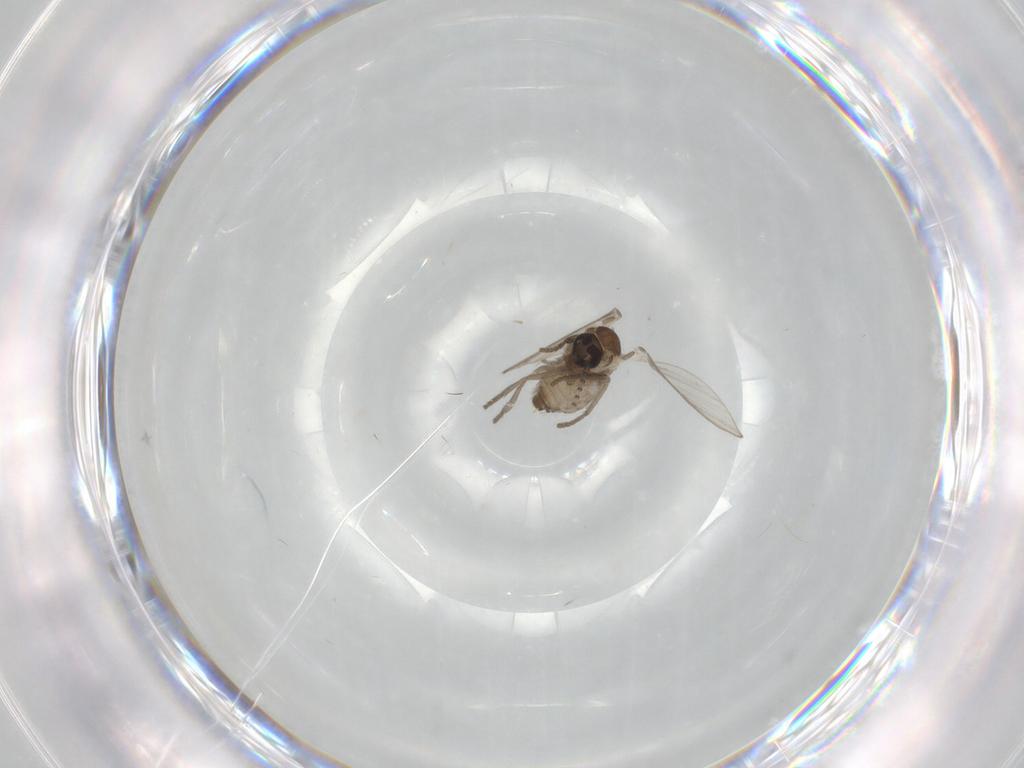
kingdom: Animalia
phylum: Arthropoda
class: Insecta
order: Diptera
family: Psychodidae
